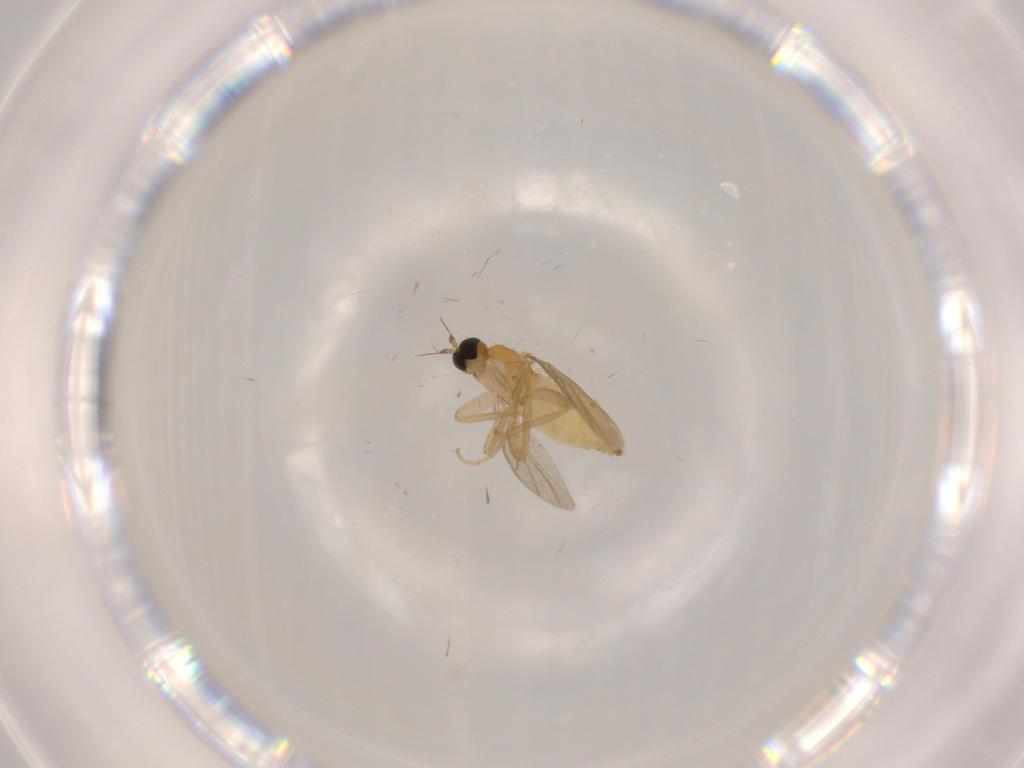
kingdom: Animalia
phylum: Arthropoda
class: Insecta
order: Diptera
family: Hybotidae
